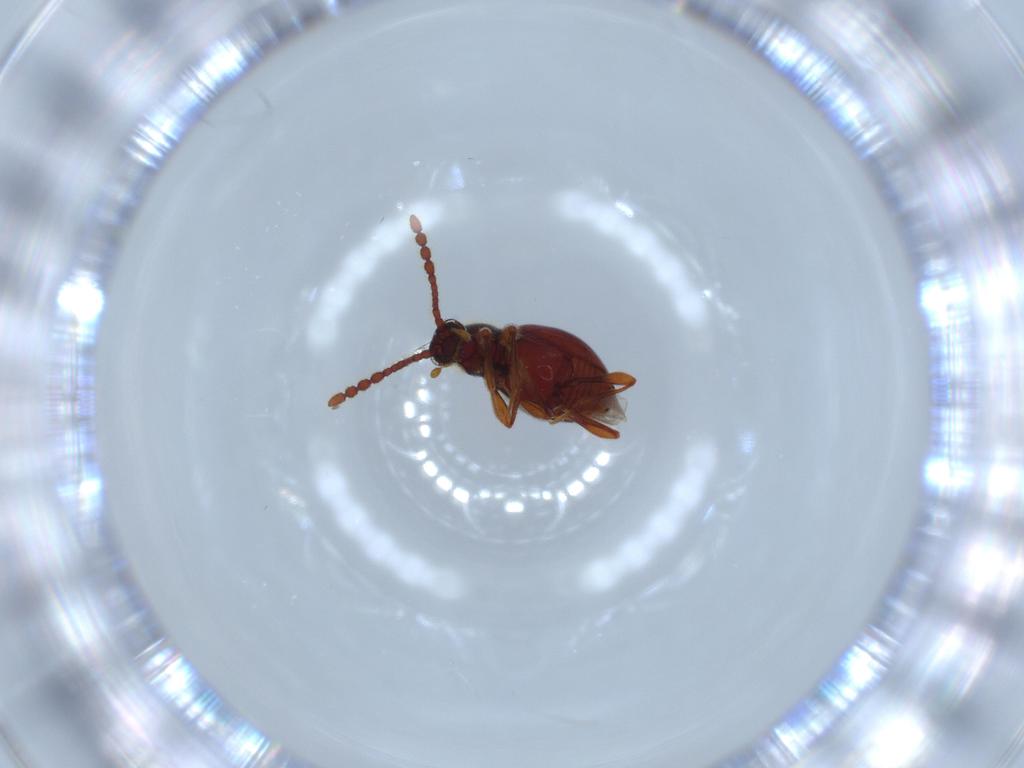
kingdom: Animalia
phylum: Arthropoda
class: Insecta
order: Coleoptera
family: Staphylinidae
